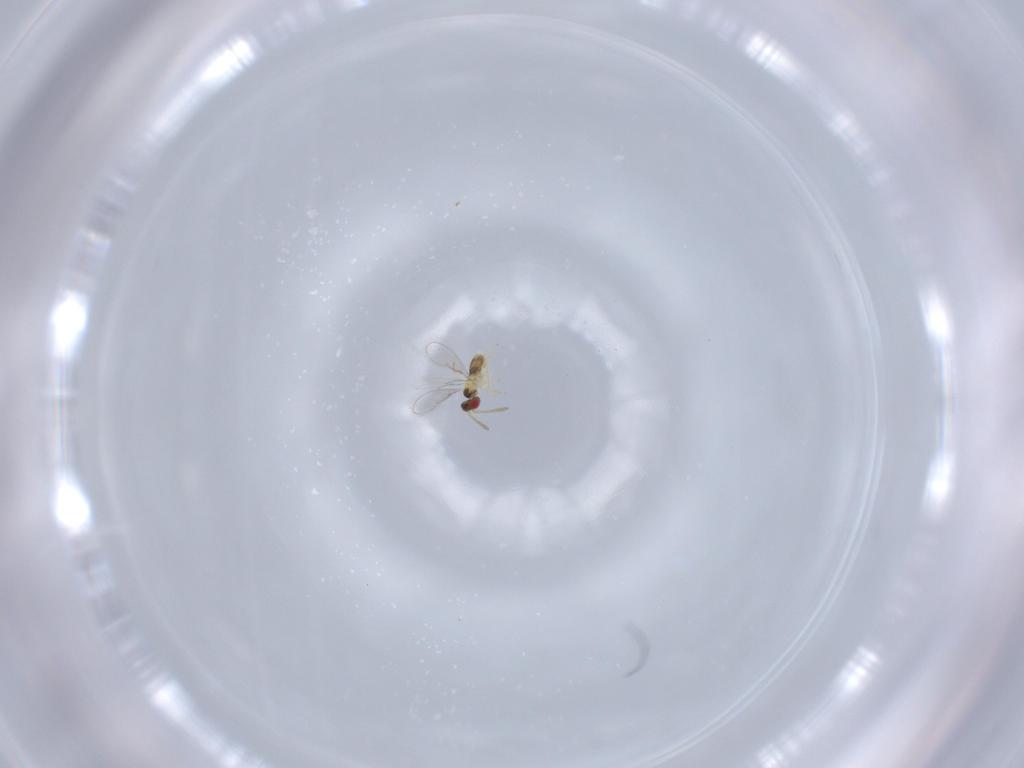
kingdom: Animalia
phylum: Arthropoda
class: Insecta
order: Hymenoptera
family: Aphelinidae
